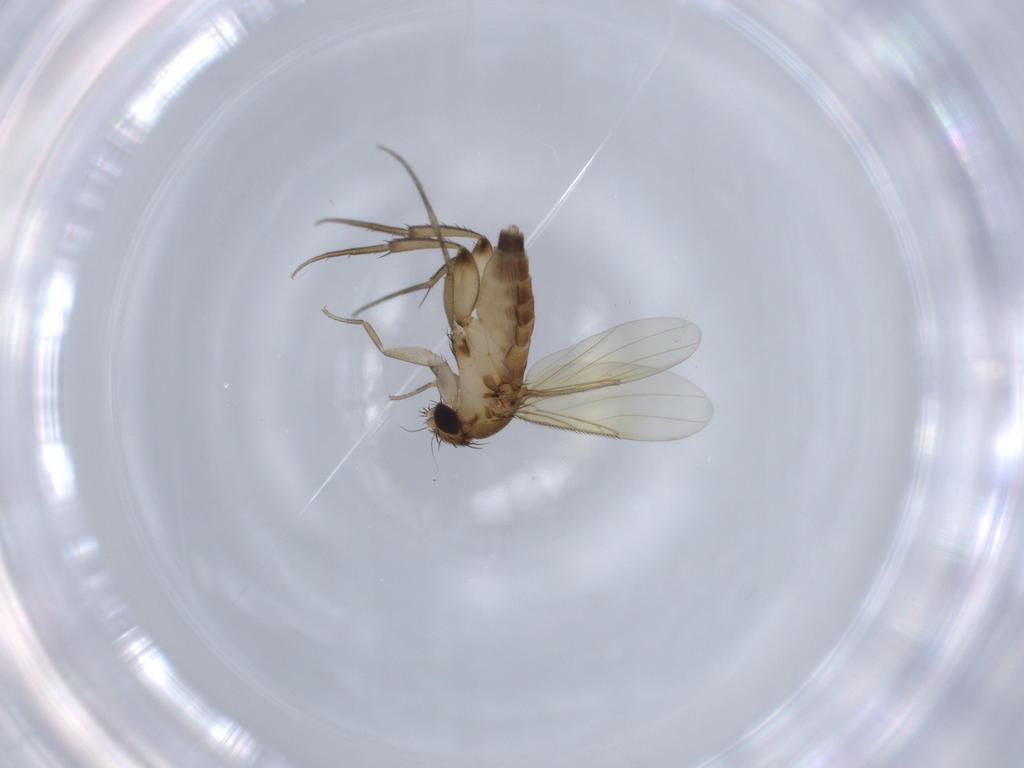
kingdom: Animalia
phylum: Arthropoda
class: Insecta
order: Diptera
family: Phoridae
